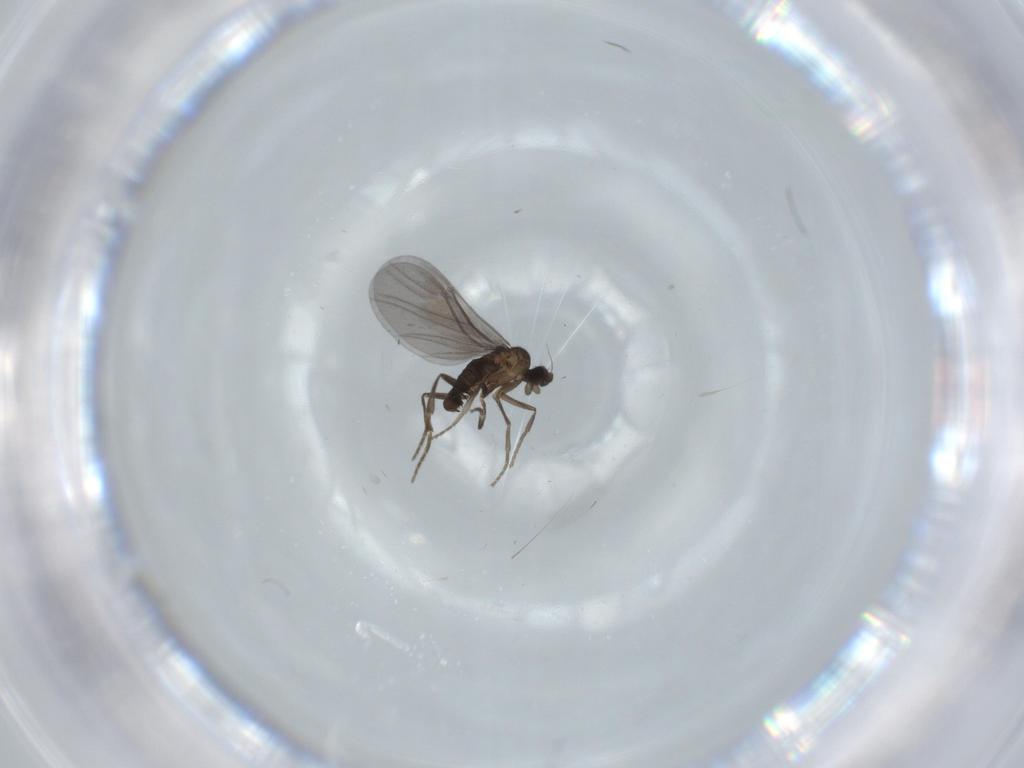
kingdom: Animalia
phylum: Arthropoda
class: Insecta
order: Diptera
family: Phoridae
